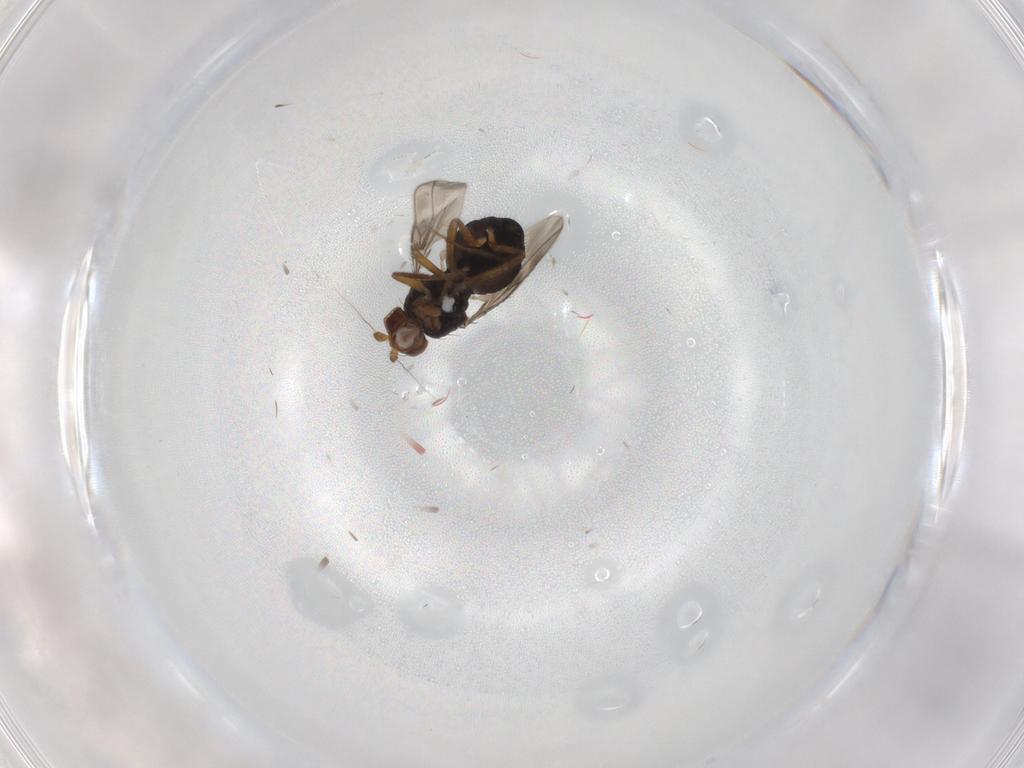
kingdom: Animalia
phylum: Arthropoda
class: Insecta
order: Diptera
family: Sphaeroceridae
